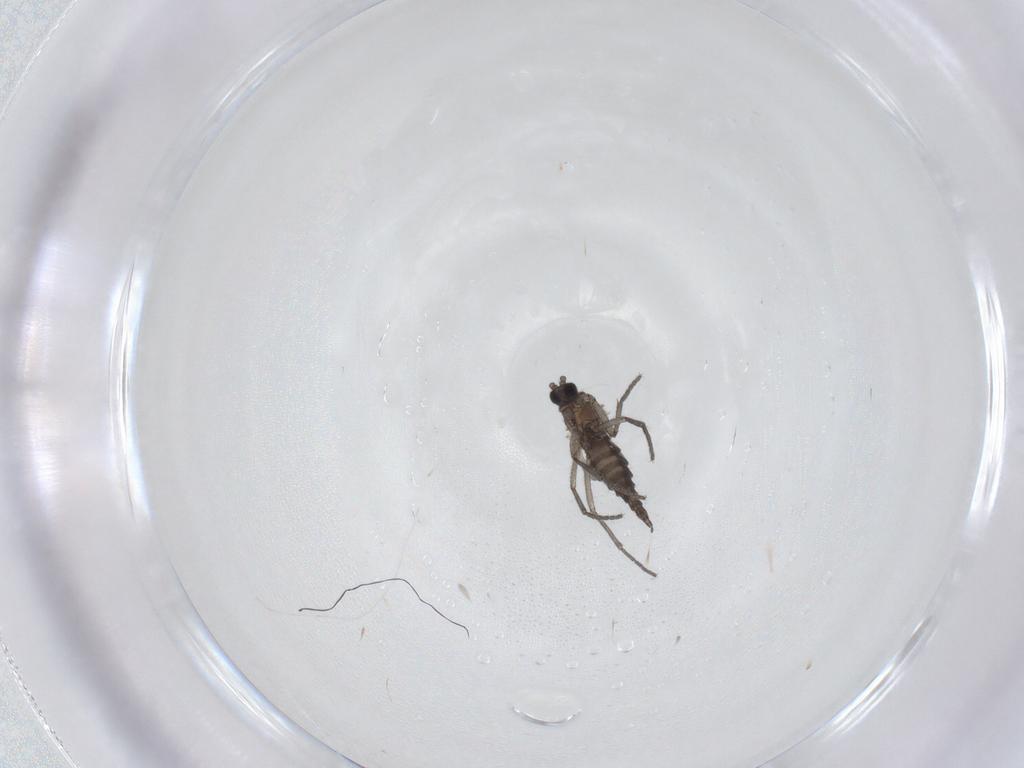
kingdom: Animalia
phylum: Arthropoda
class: Insecta
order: Diptera
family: Sciaridae
